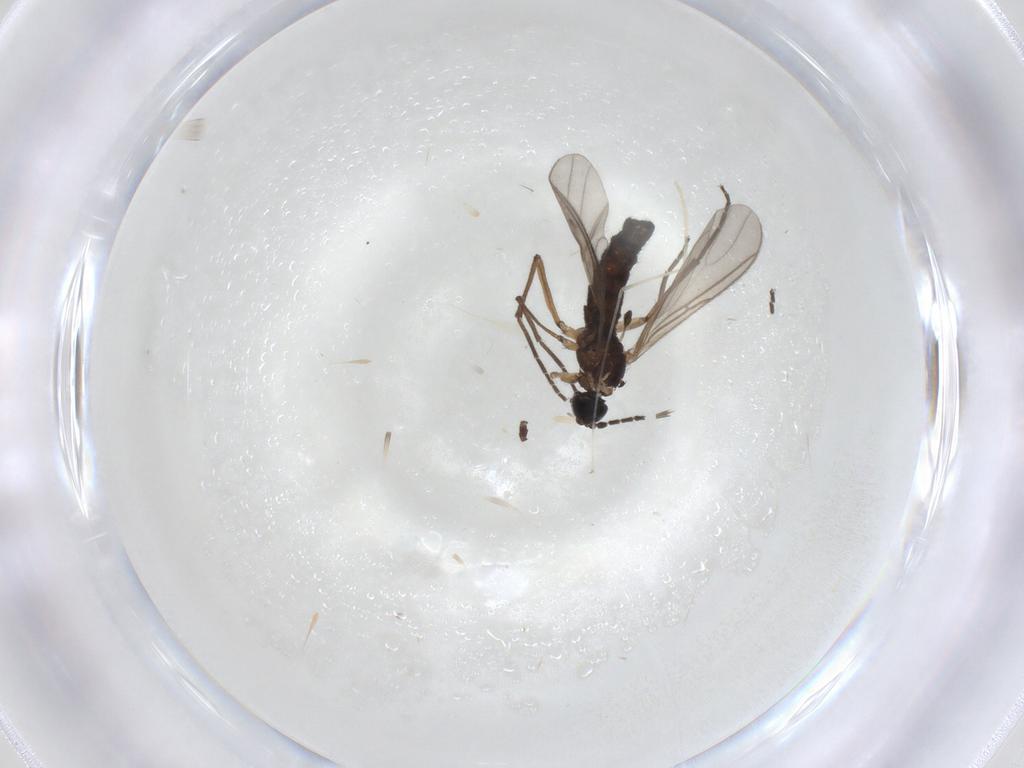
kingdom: Animalia
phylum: Arthropoda
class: Insecta
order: Diptera
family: Sciaridae
